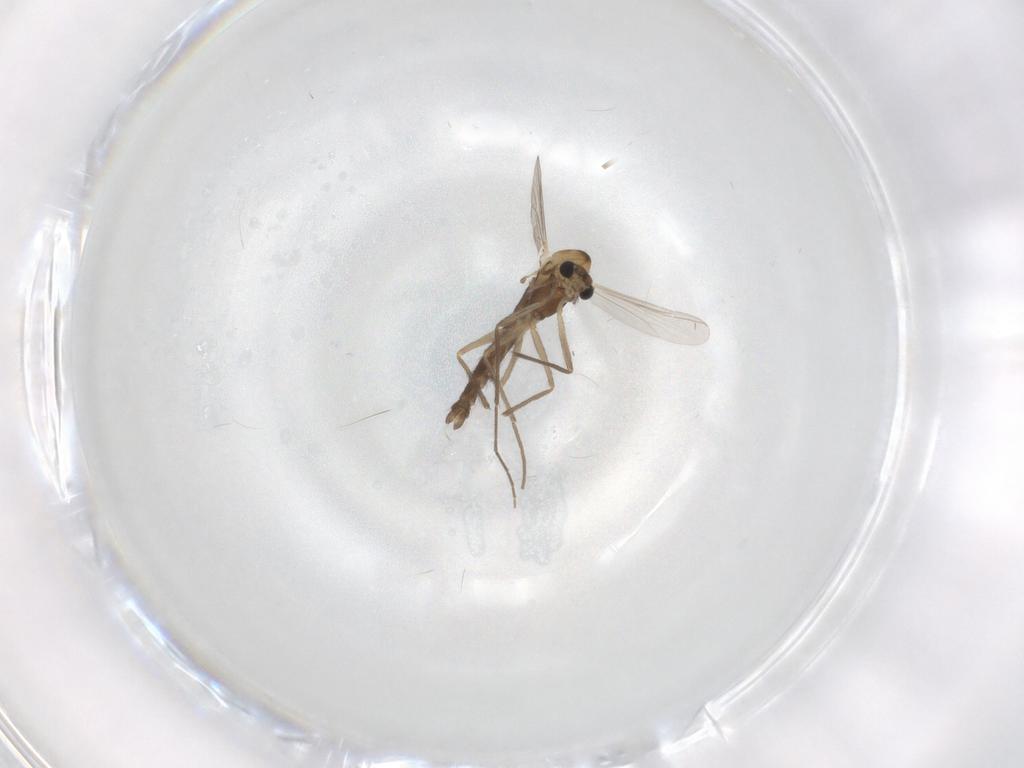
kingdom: Animalia
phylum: Arthropoda
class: Insecta
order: Diptera
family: Chironomidae
